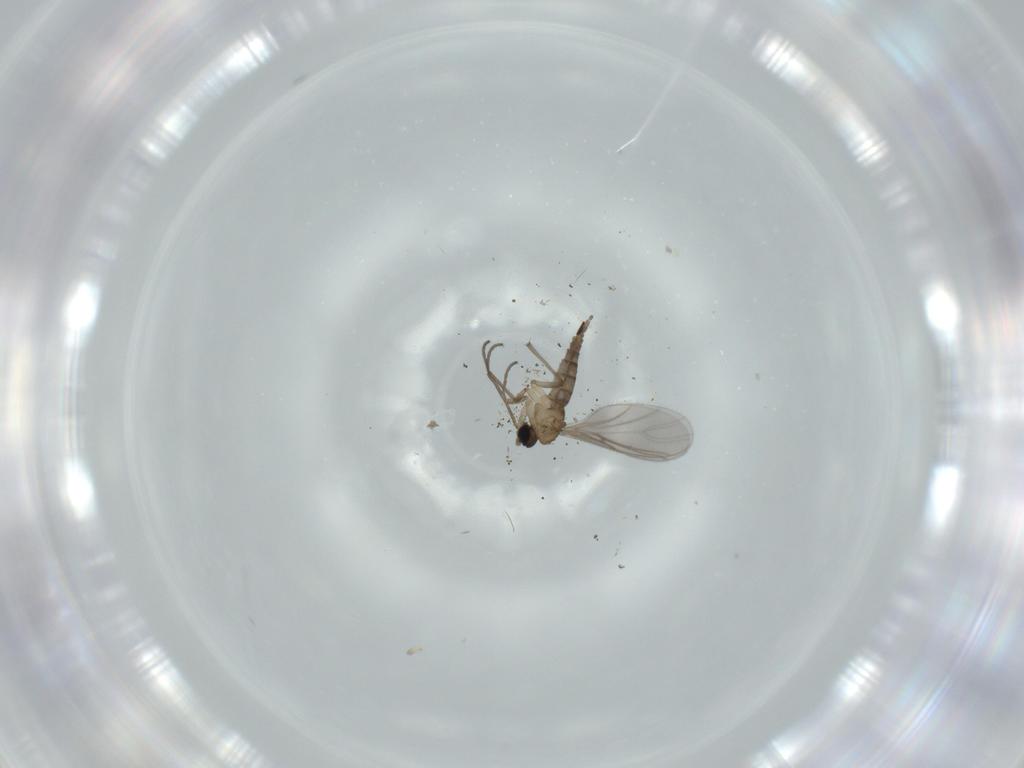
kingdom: Animalia
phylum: Arthropoda
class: Insecta
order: Diptera
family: Sciaridae
